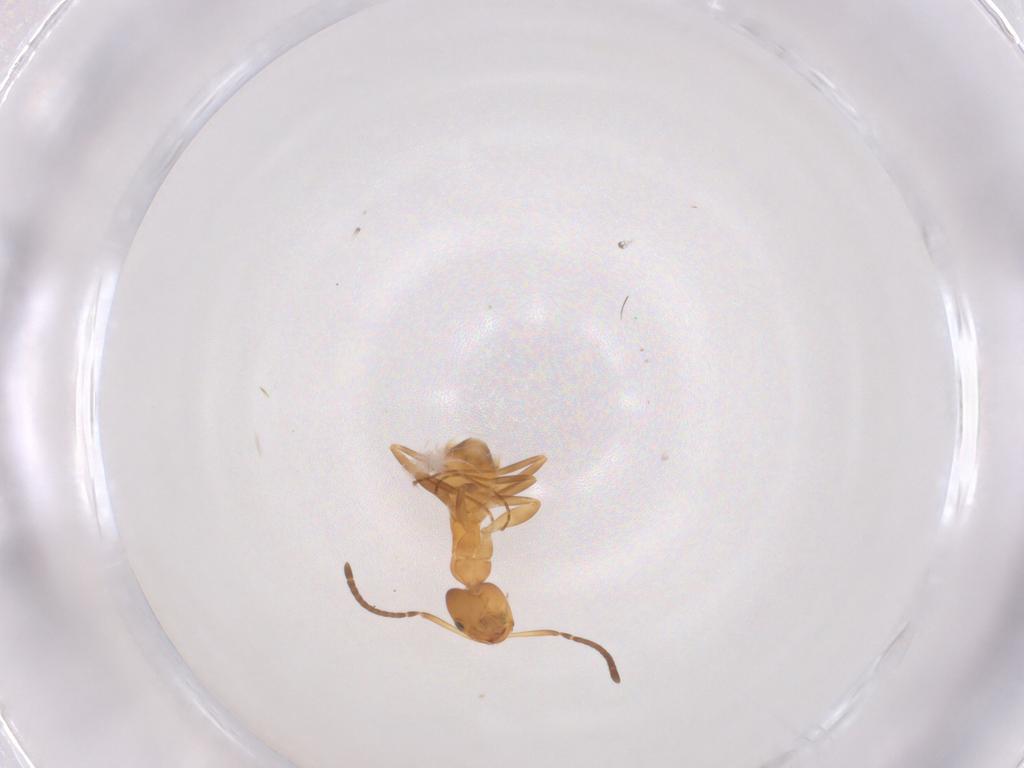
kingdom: Animalia
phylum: Arthropoda
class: Insecta
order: Hymenoptera
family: Formicidae
